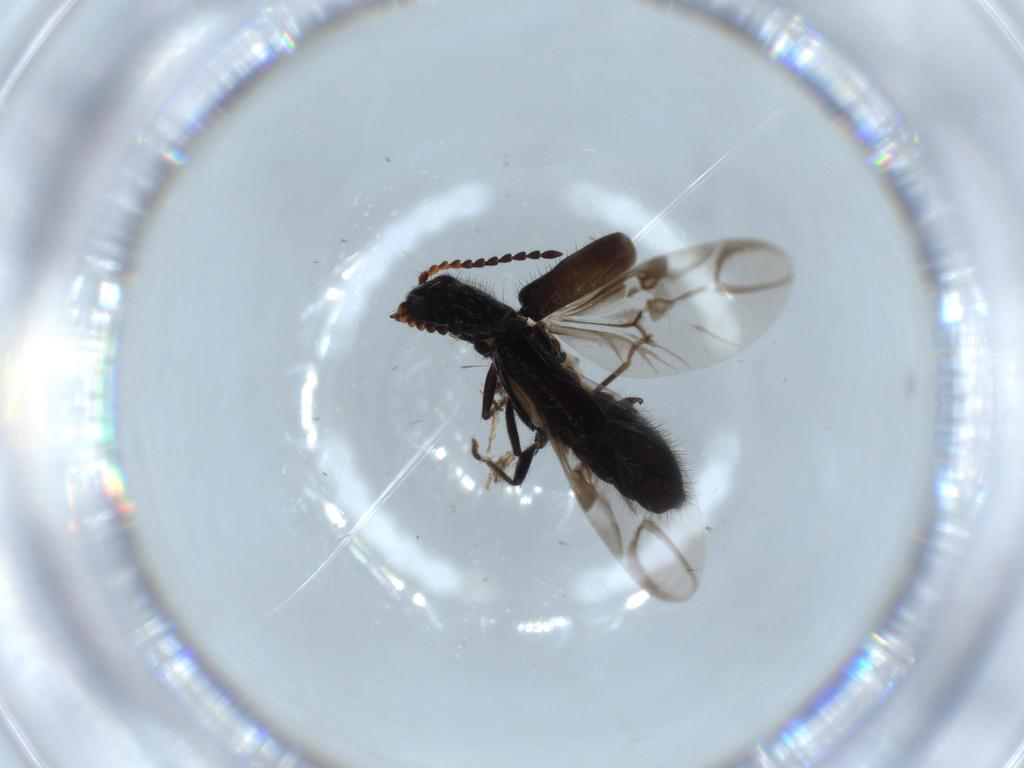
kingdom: Animalia
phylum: Arthropoda
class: Insecta
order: Coleoptera
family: Melyridae
